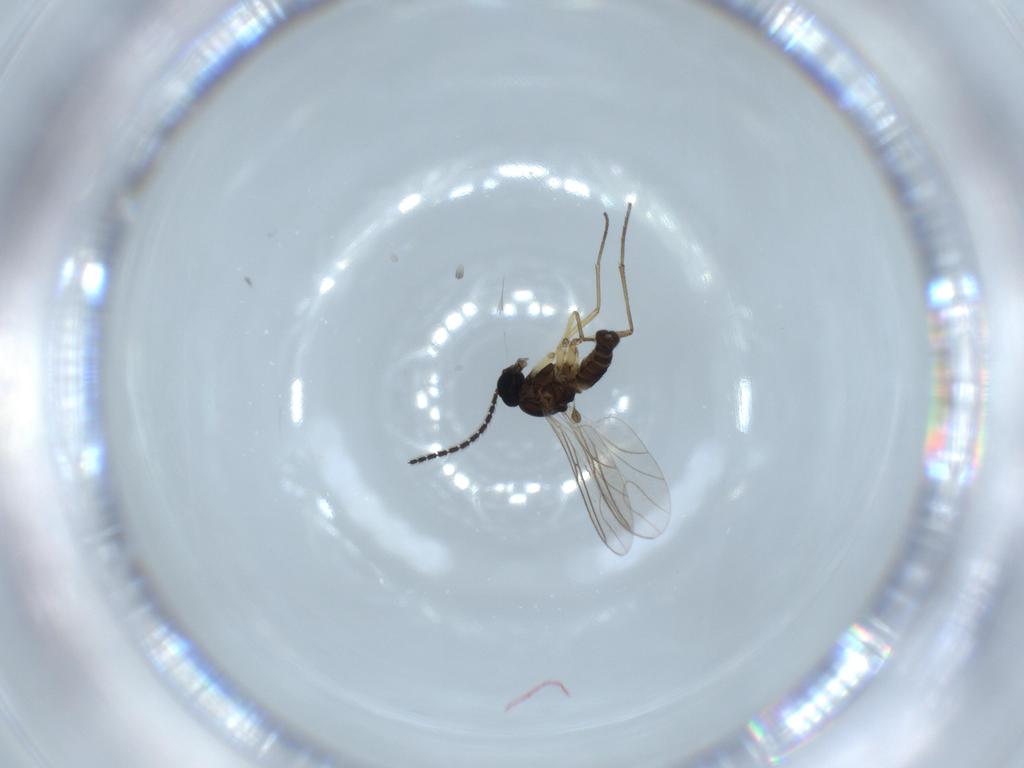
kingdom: Animalia
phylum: Arthropoda
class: Insecta
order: Diptera
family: Sciaridae
